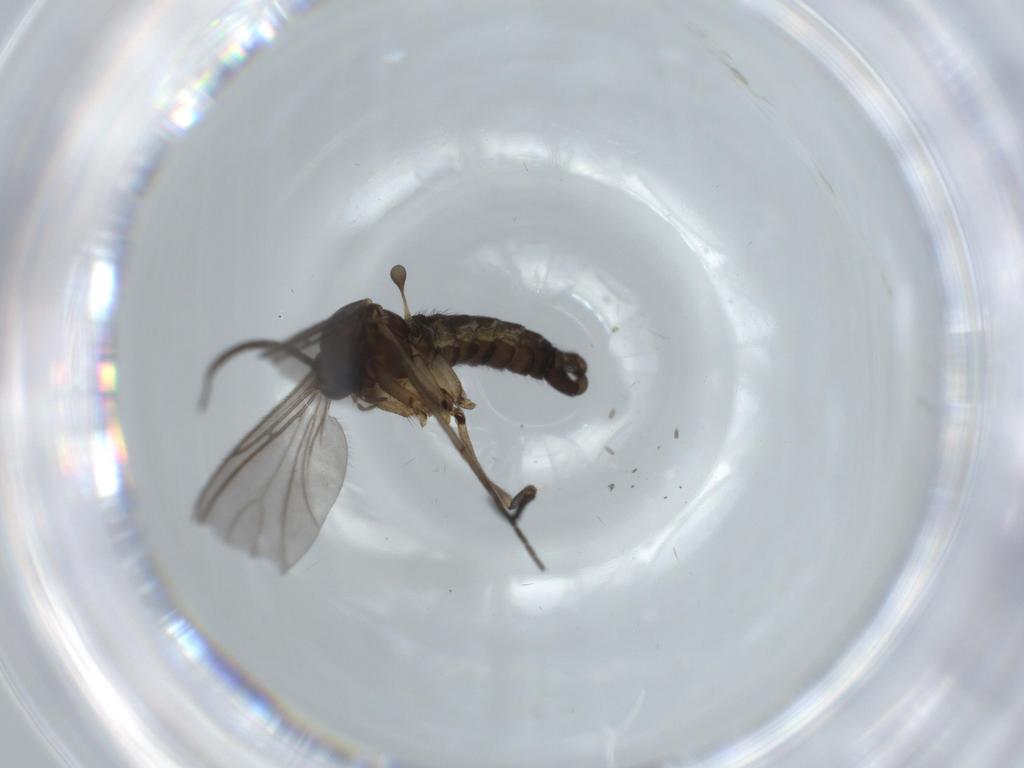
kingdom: Animalia
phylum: Arthropoda
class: Insecta
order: Diptera
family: Sciaridae
